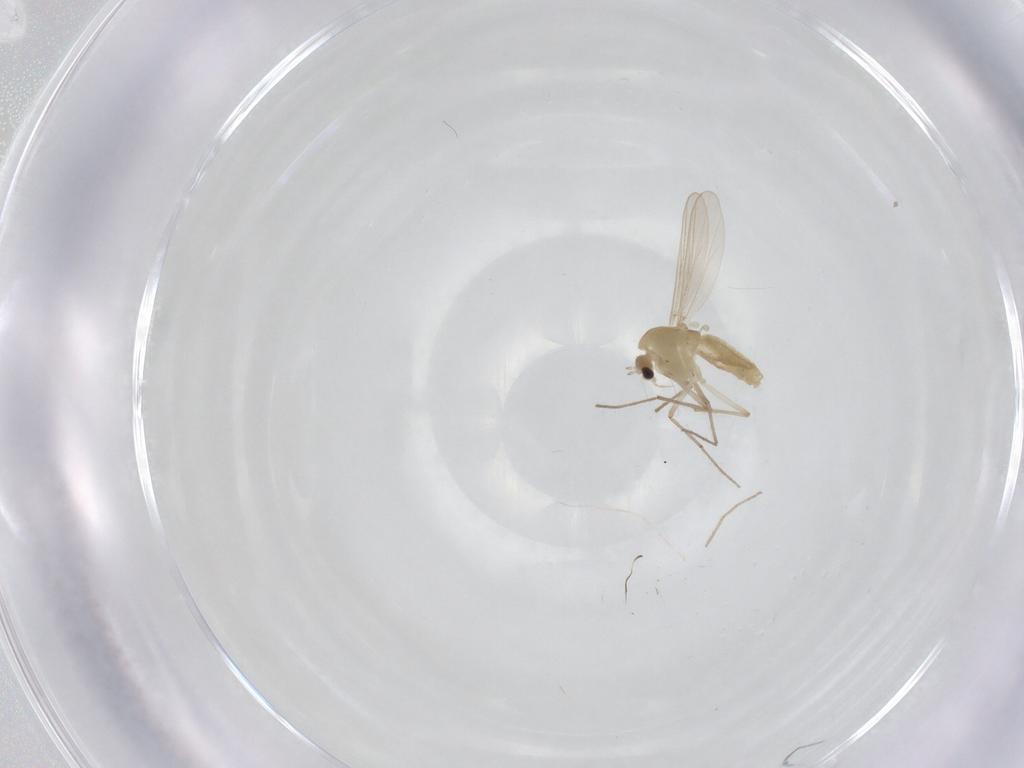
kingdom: Animalia
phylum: Arthropoda
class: Insecta
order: Diptera
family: Chironomidae
